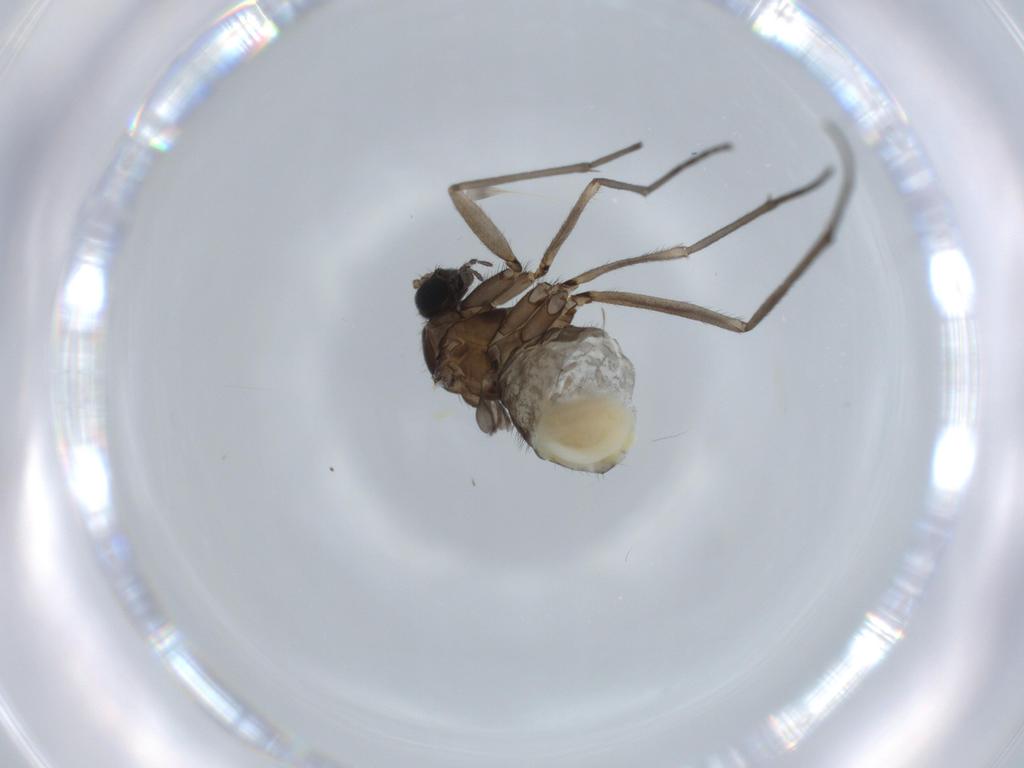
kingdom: Animalia
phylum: Arthropoda
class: Insecta
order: Diptera
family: Sciaridae
